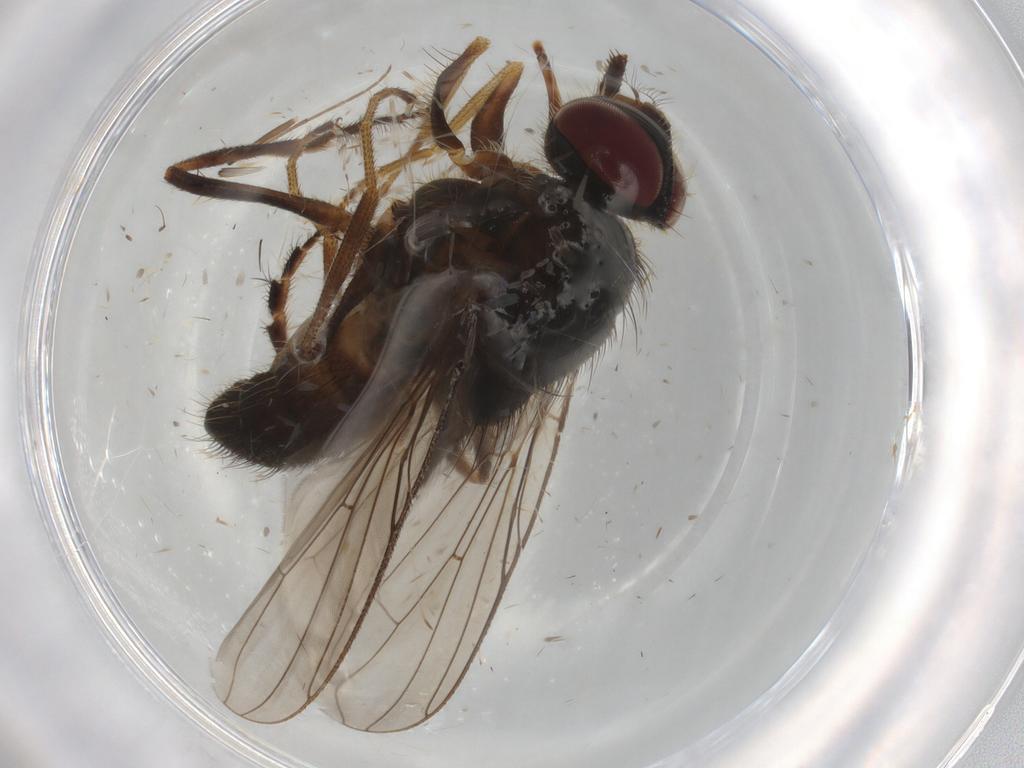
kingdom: Animalia
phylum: Arthropoda
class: Insecta
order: Diptera
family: Cecidomyiidae
